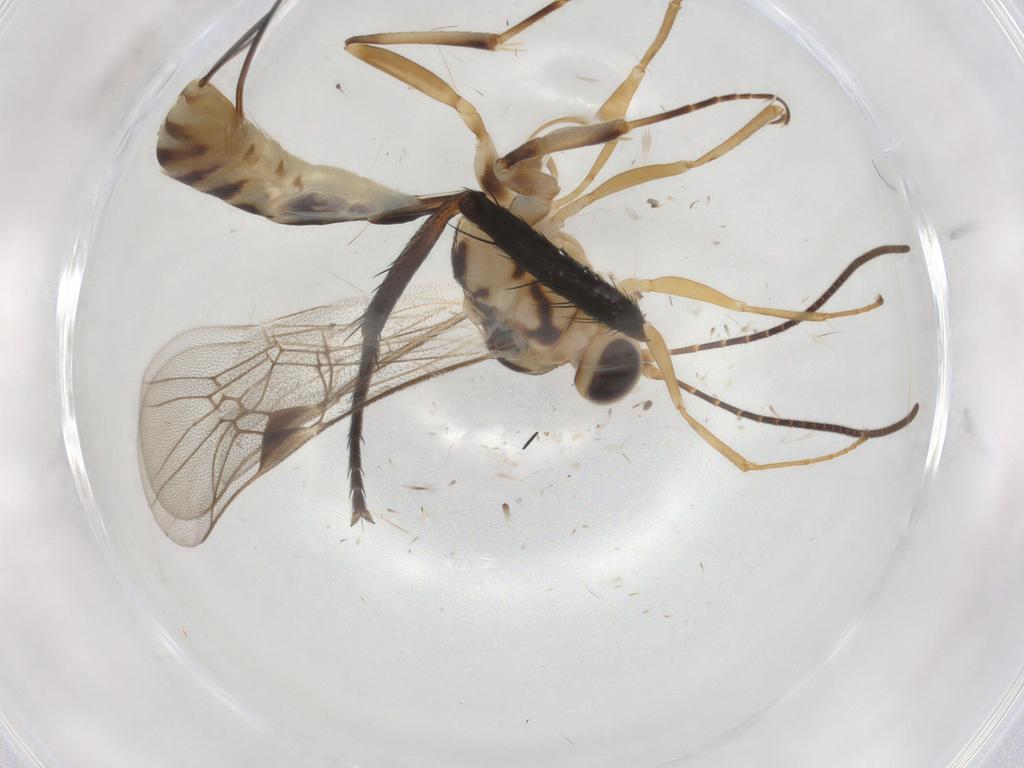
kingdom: Animalia
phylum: Arthropoda
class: Insecta
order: Hymenoptera
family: Ichneumonidae
